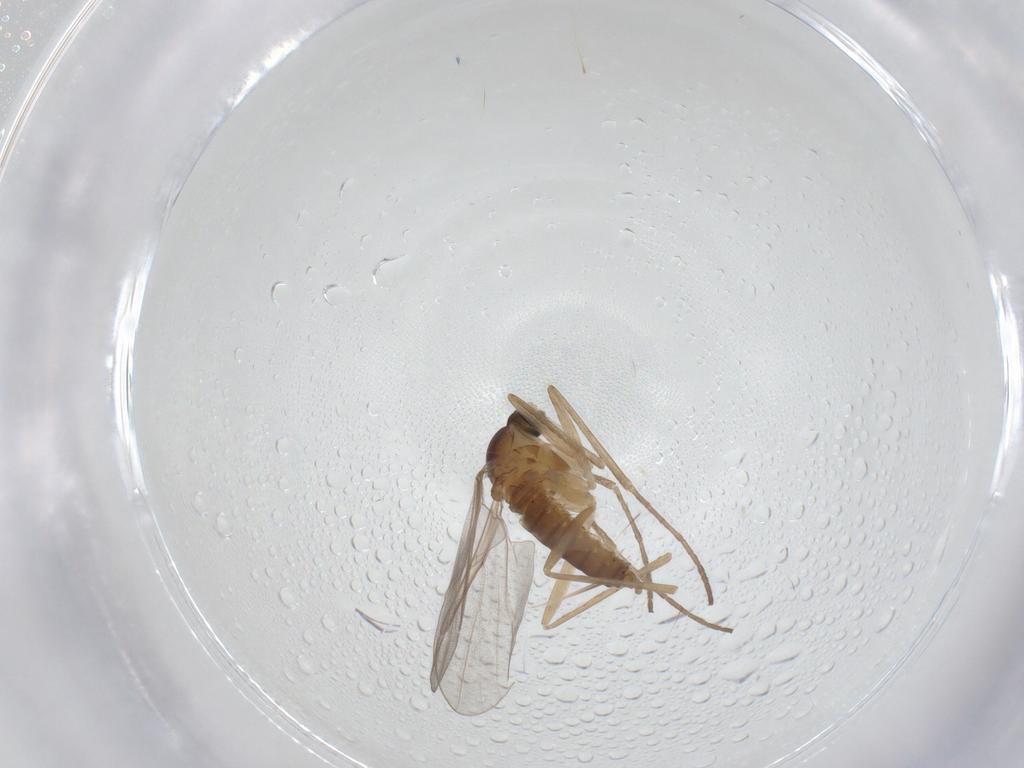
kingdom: Animalia
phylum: Arthropoda
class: Insecta
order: Diptera
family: Cecidomyiidae
